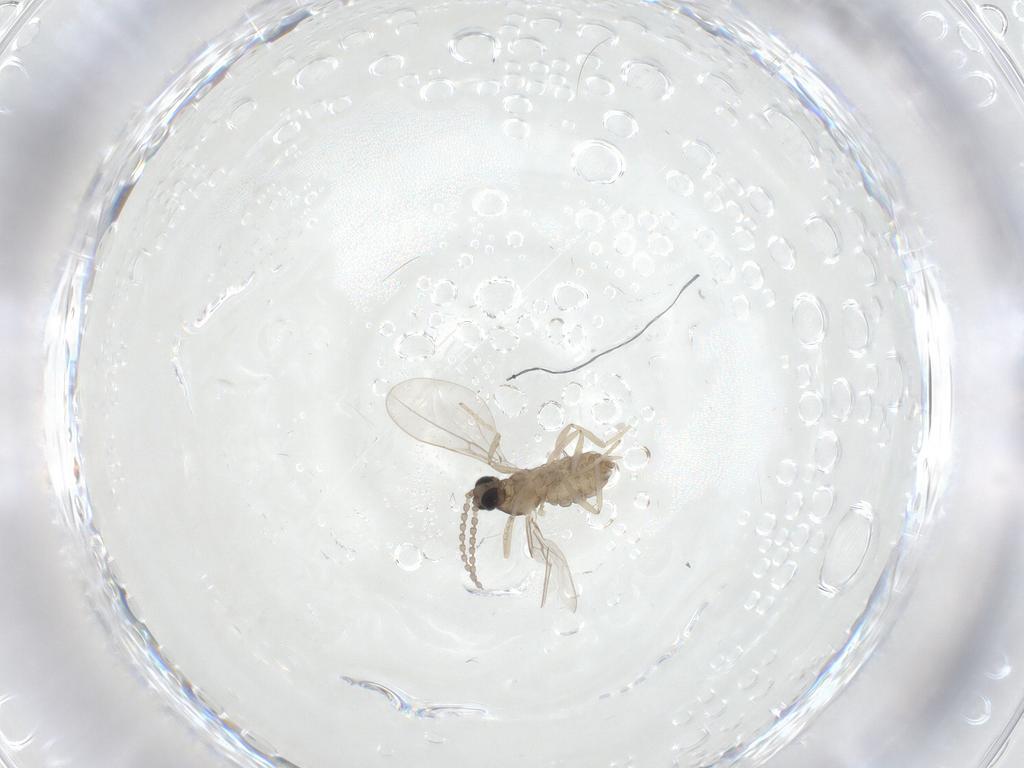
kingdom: Animalia
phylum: Arthropoda
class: Insecta
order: Diptera
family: Cecidomyiidae
